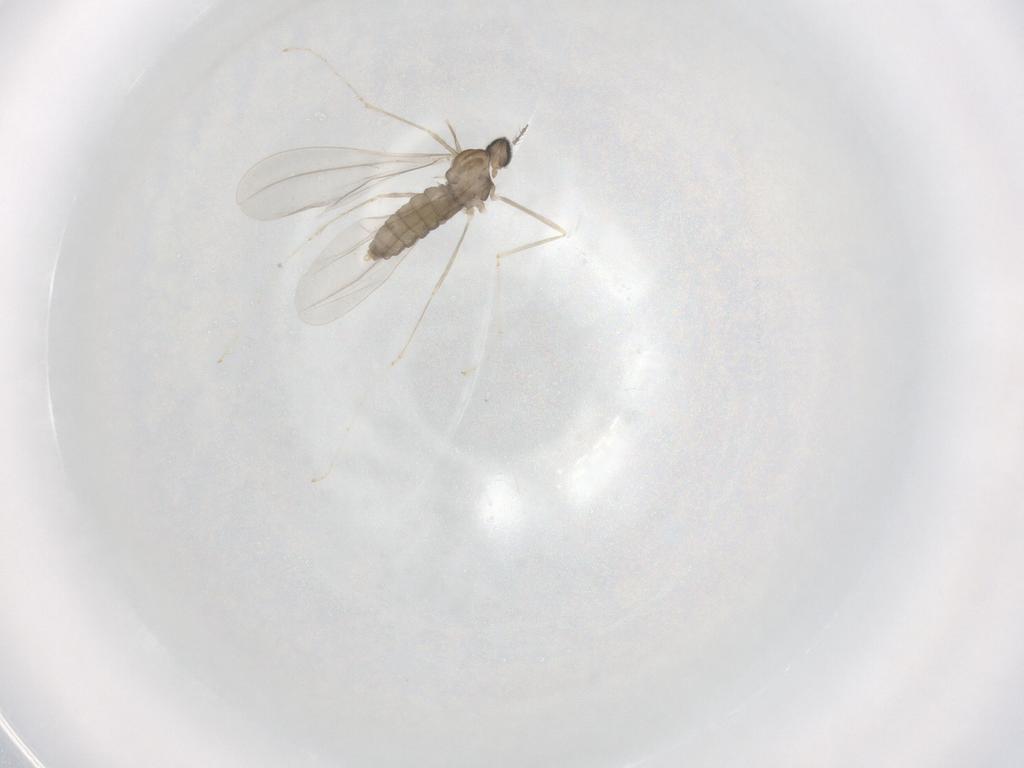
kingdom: Animalia
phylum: Arthropoda
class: Insecta
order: Diptera
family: Cecidomyiidae
